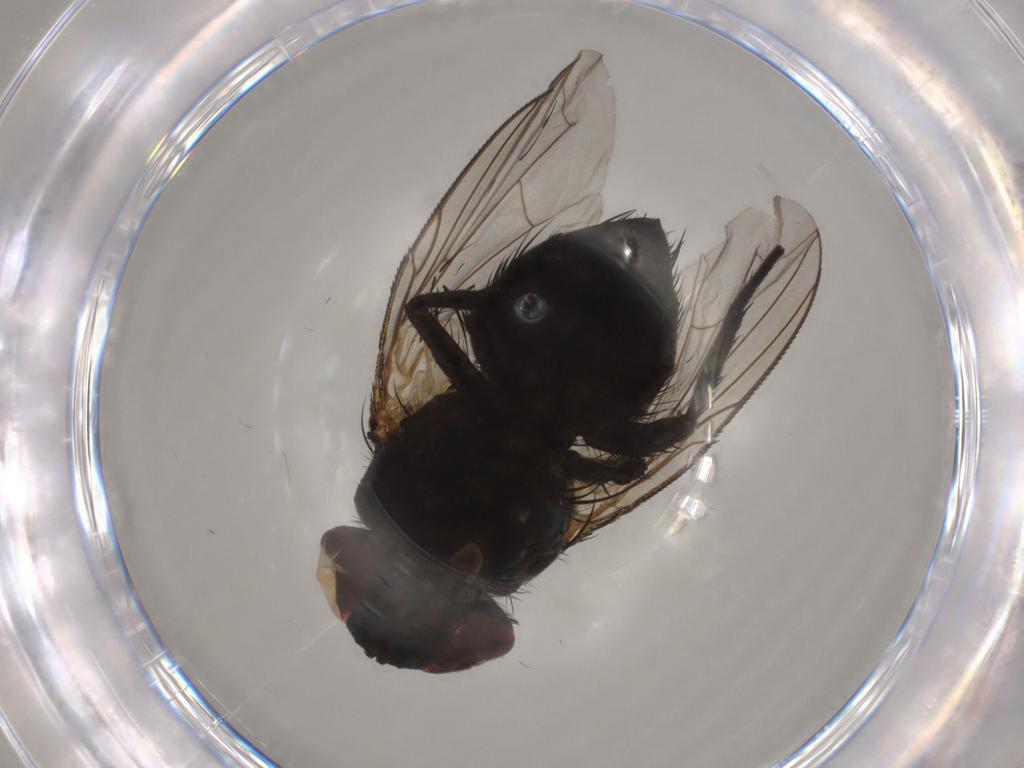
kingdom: Animalia
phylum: Arthropoda
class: Insecta
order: Diptera
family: Tachinidae
